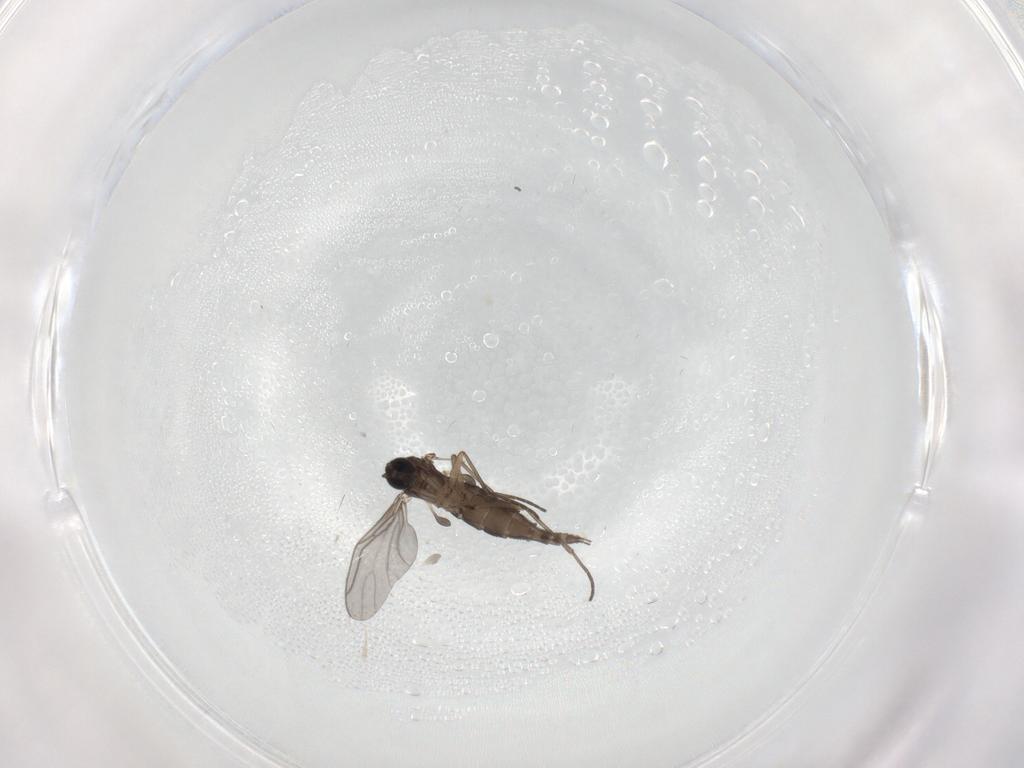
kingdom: Animalia
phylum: Arthropoda
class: Insecta
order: Diptera
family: Sciaridae
